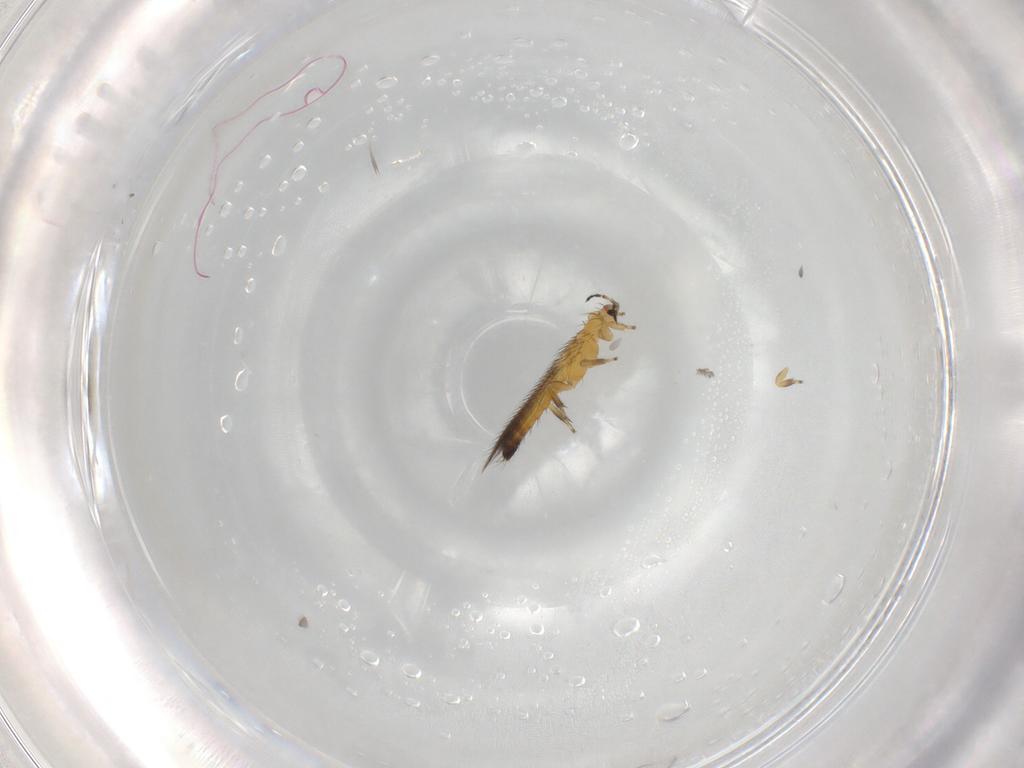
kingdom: Animalia
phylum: Arthropoda
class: Insecta
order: Thysanoptera
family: Thripidae
